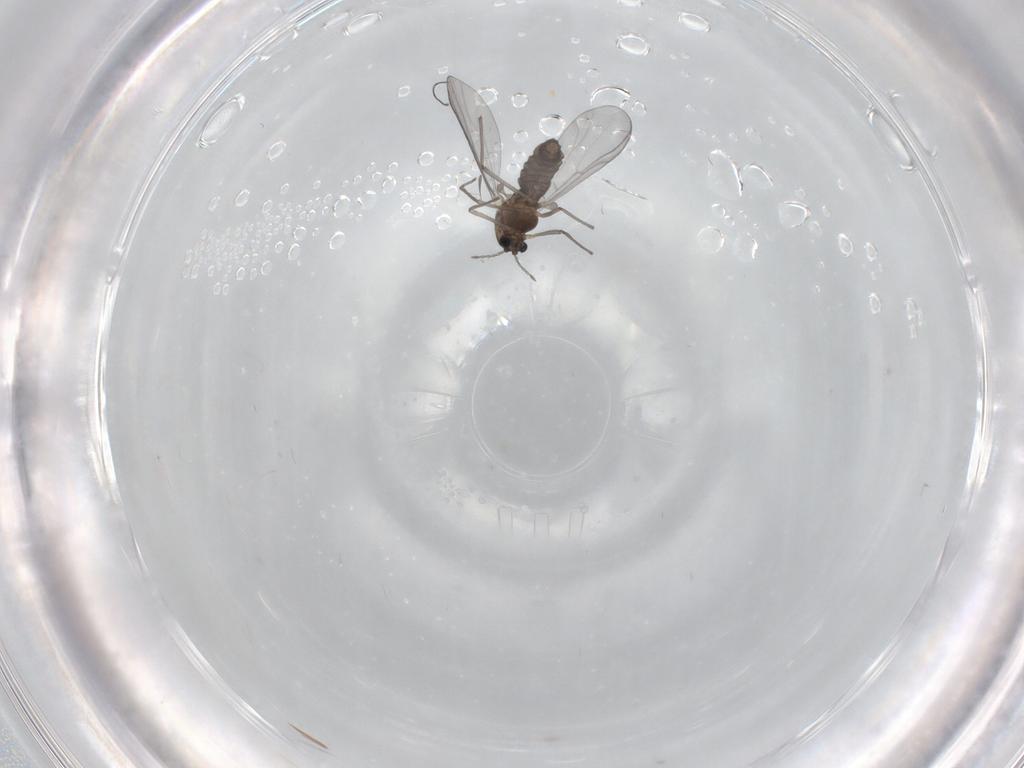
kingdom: Animalia
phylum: Arthropoda
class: Insecta
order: Diptera
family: Chironomidae
